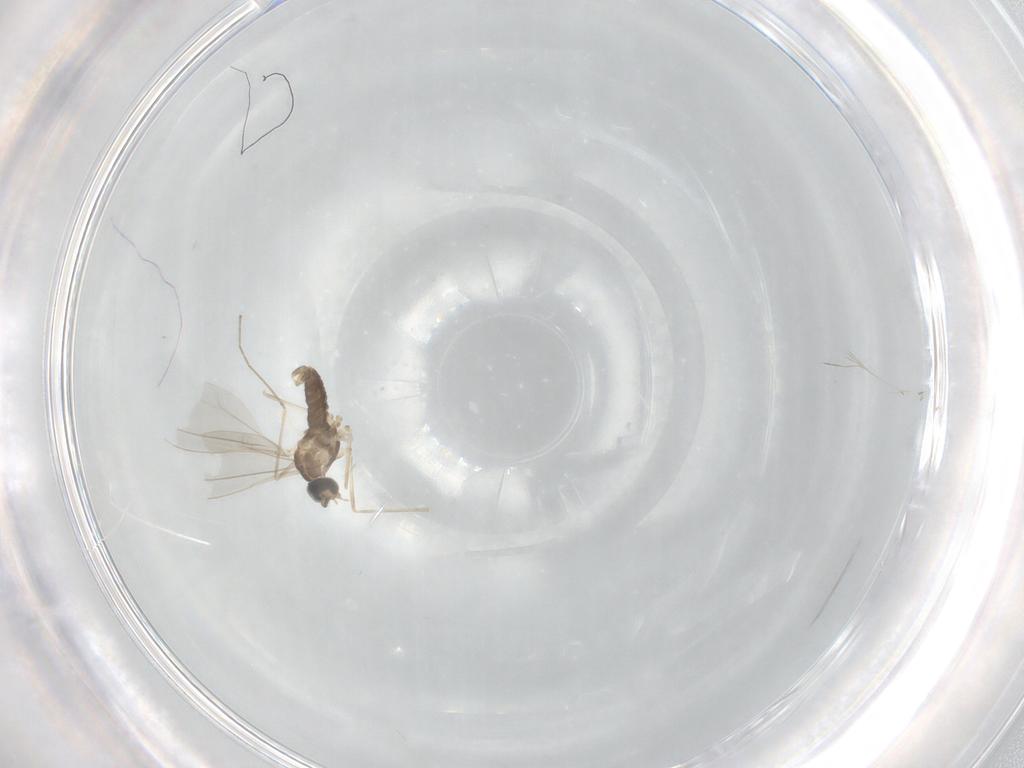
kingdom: Animalia
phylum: Arthropoda
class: Insecta
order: Diptera
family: Cecidomyiidae
